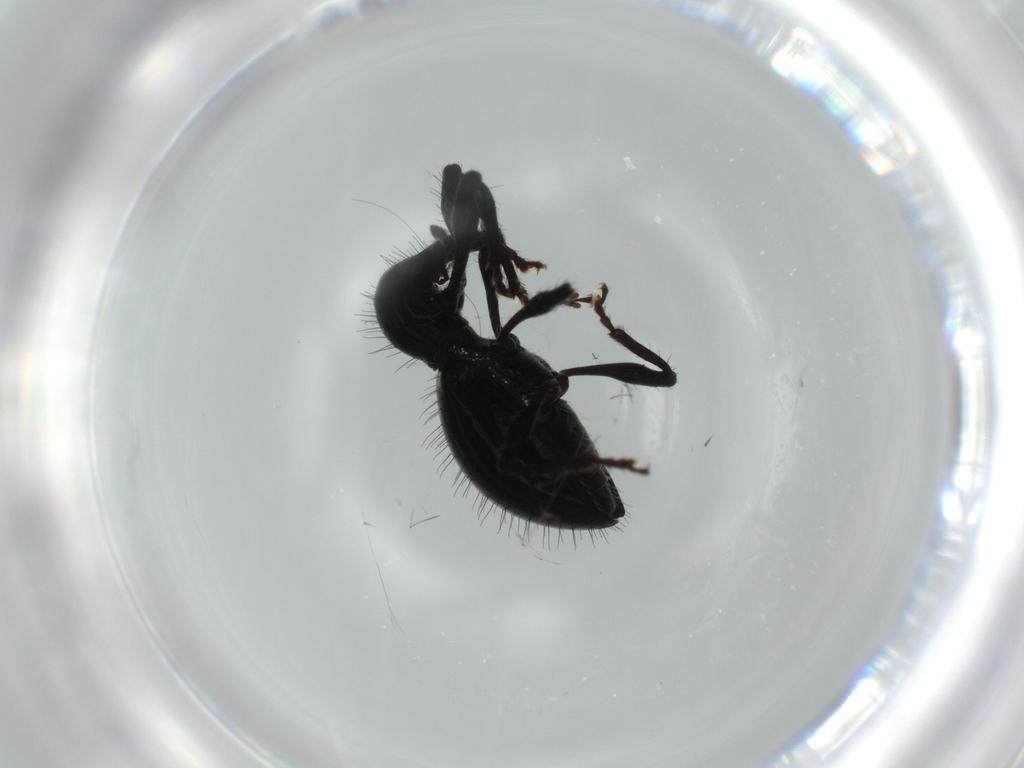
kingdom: Animalia
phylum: Arthropoda
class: Insecta
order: Coleoptera
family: Curculionidae
